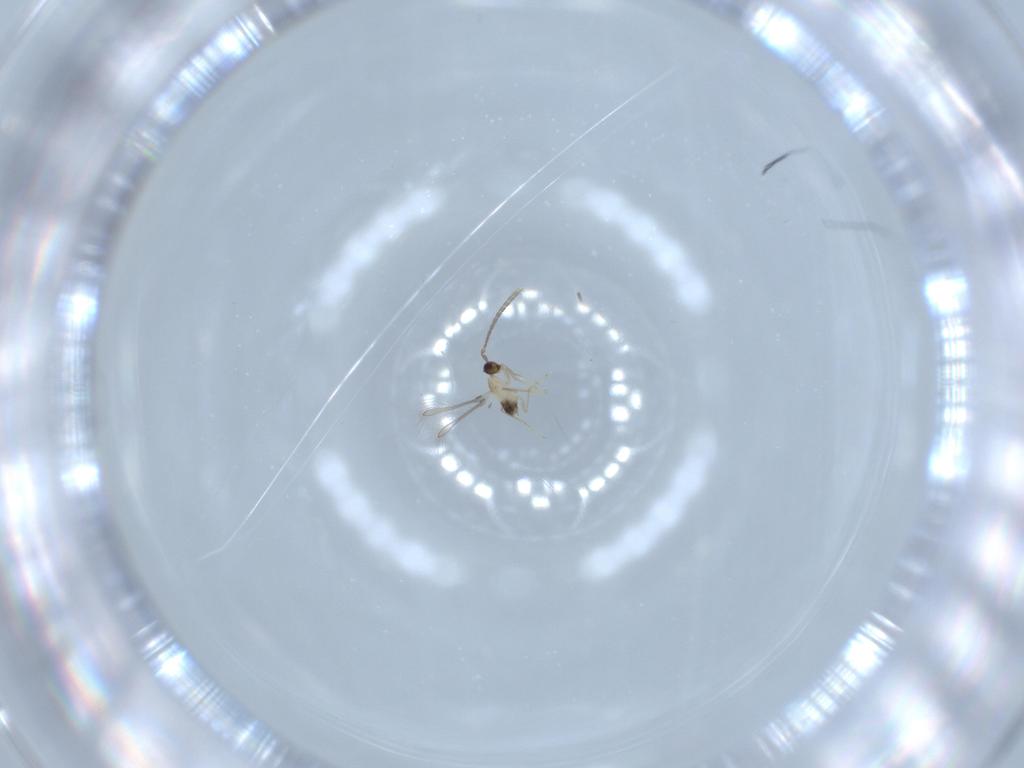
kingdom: Animalia
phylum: Arthropoda
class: Insecta
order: Hymenoptera
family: Mymaridae
